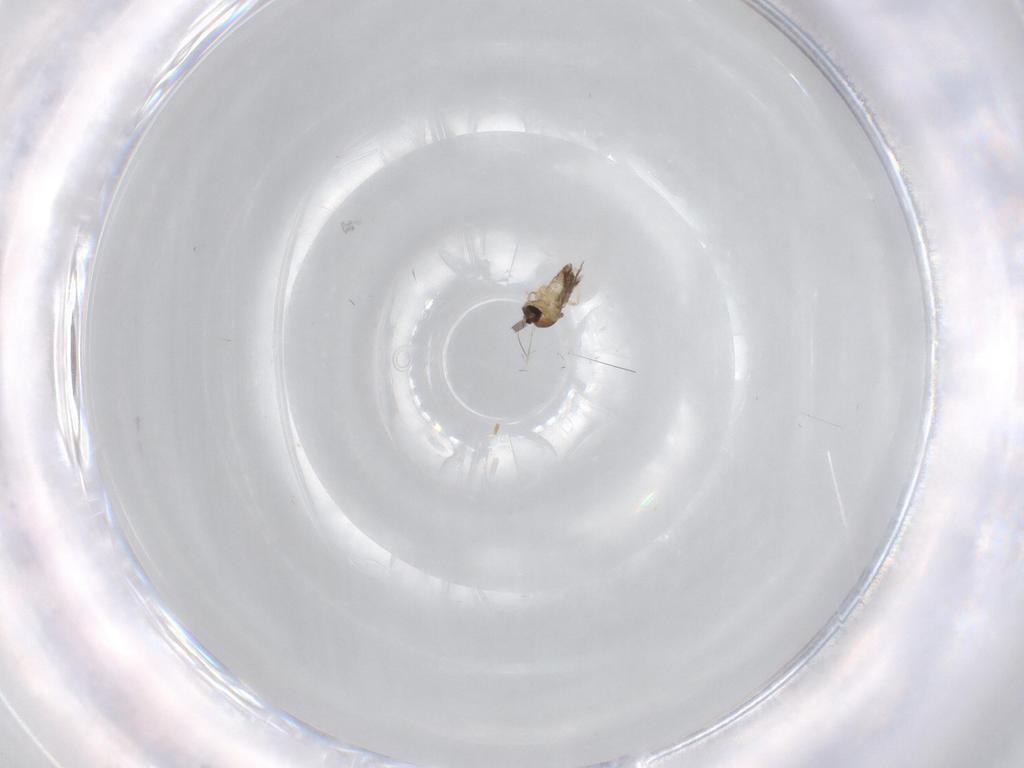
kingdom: Animalia
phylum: Arthropoda
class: Insecta
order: Diptera
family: Cecidomyiidae
